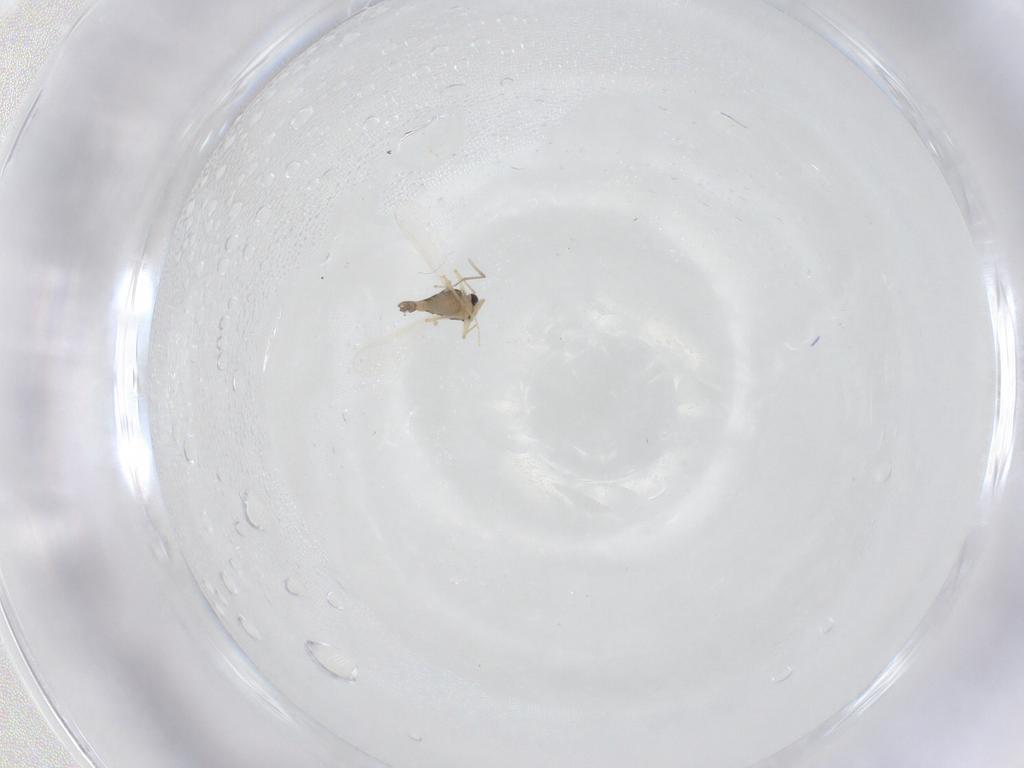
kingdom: Animalia
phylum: Arthropoda
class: Insecta
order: Diptera
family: Chironomidae
